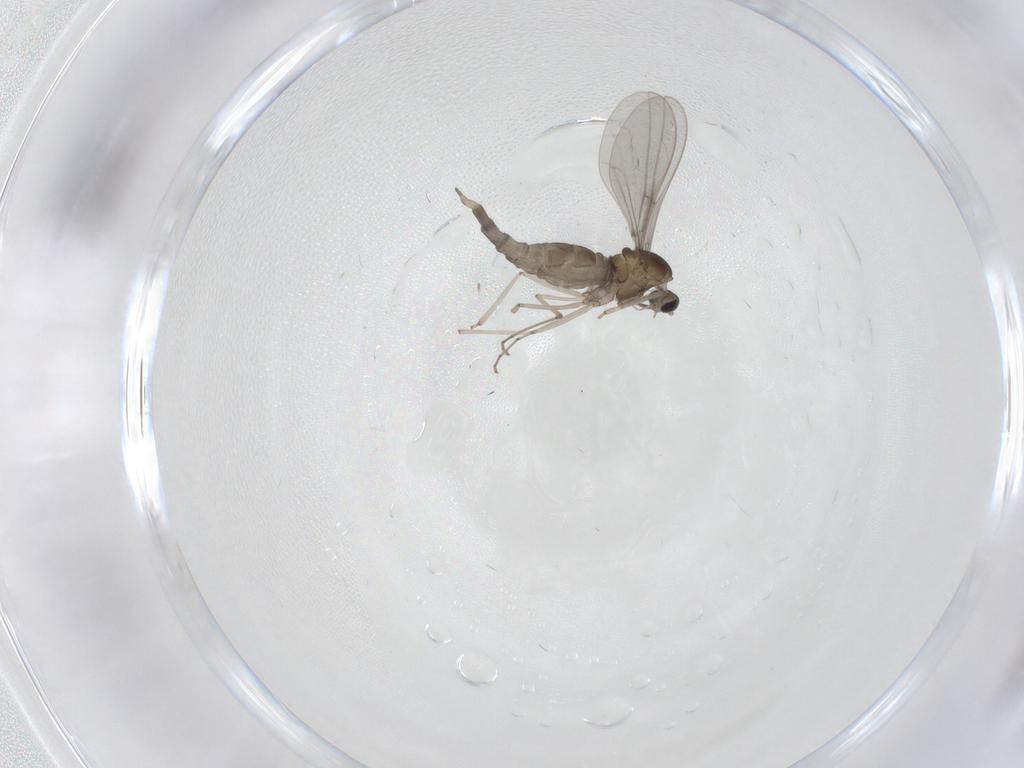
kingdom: Animalia
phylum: Arthropoda
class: Insecta
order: Diptera
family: Cecidomyiidae
